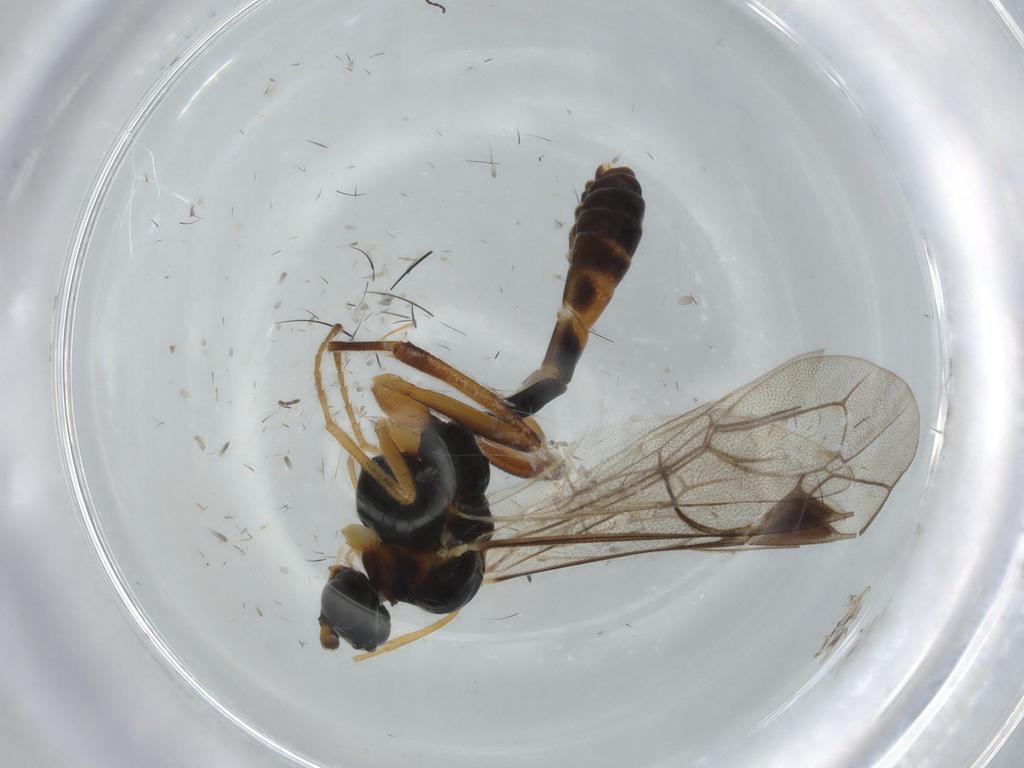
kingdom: Animalia
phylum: Arthropoda
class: Insecta
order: Hymenoptera
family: Ichneumonidae
